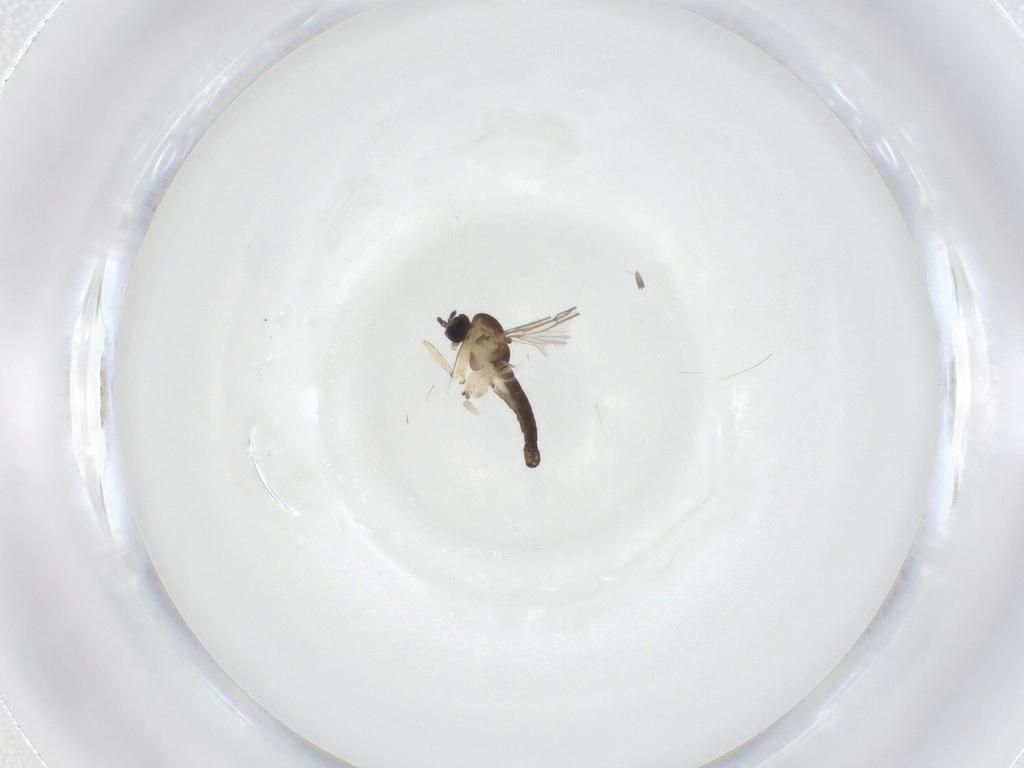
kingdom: Animalia
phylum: Arthropoda
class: Insecta
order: Diptera
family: Sciaridae
